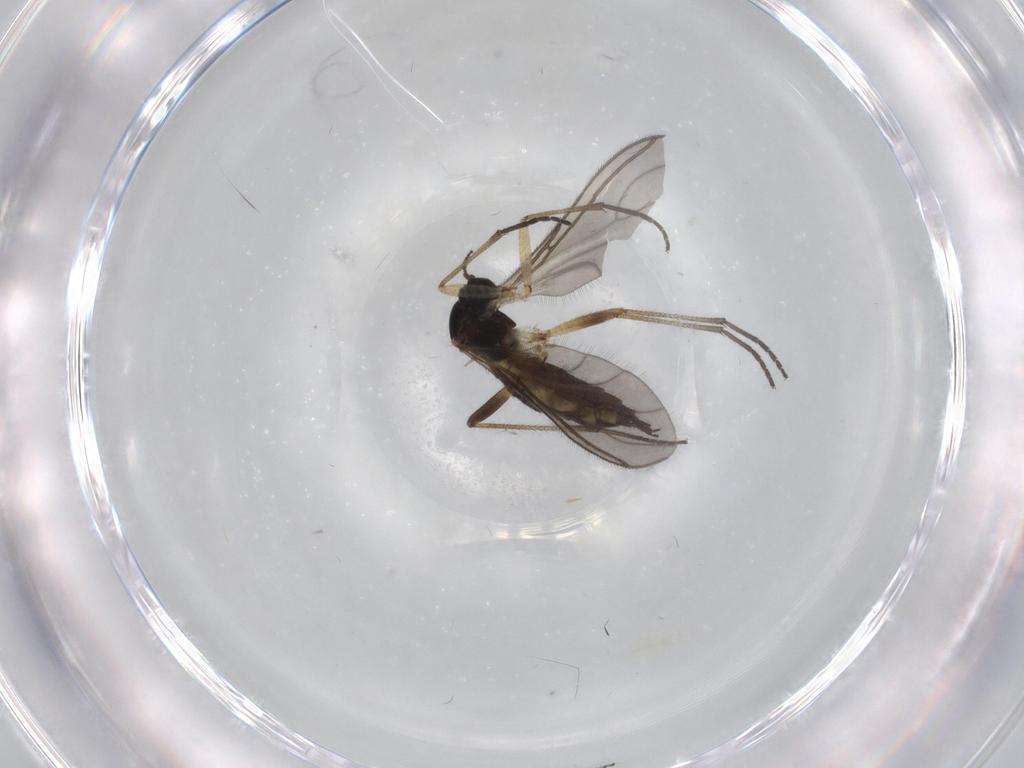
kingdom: Animalia
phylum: Arthropoda
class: Insecta
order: Diptera
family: Sciaridae
